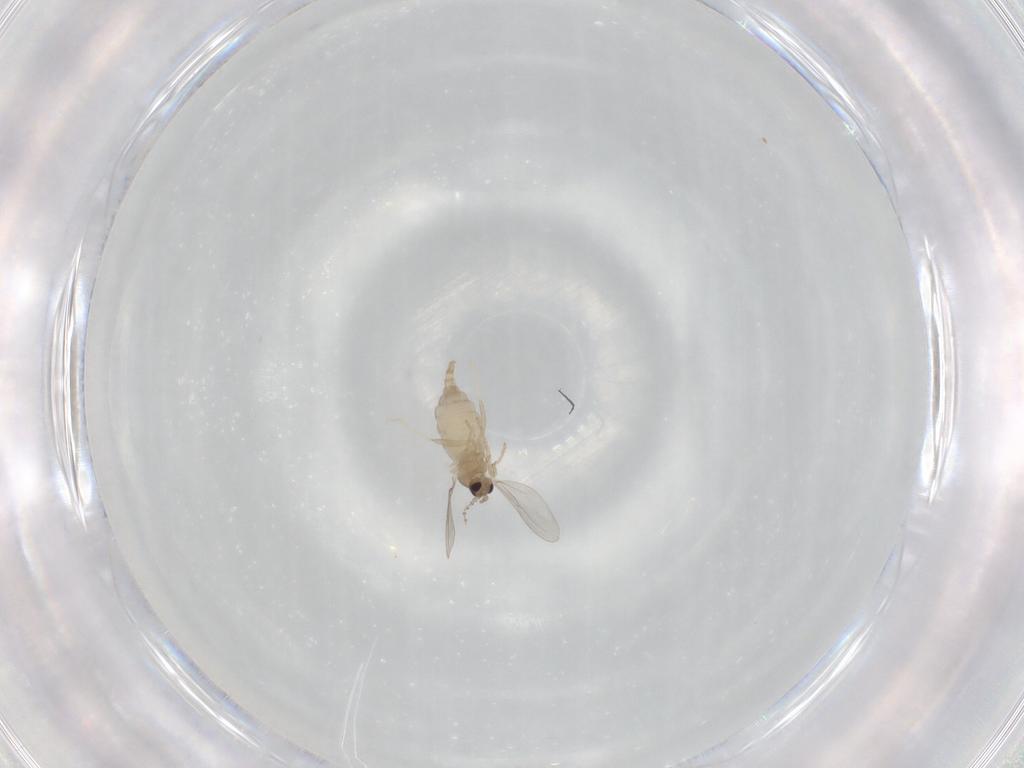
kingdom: Animalia
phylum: Arthropoda
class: Insecta
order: Diptera
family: Cecidomyiidae
